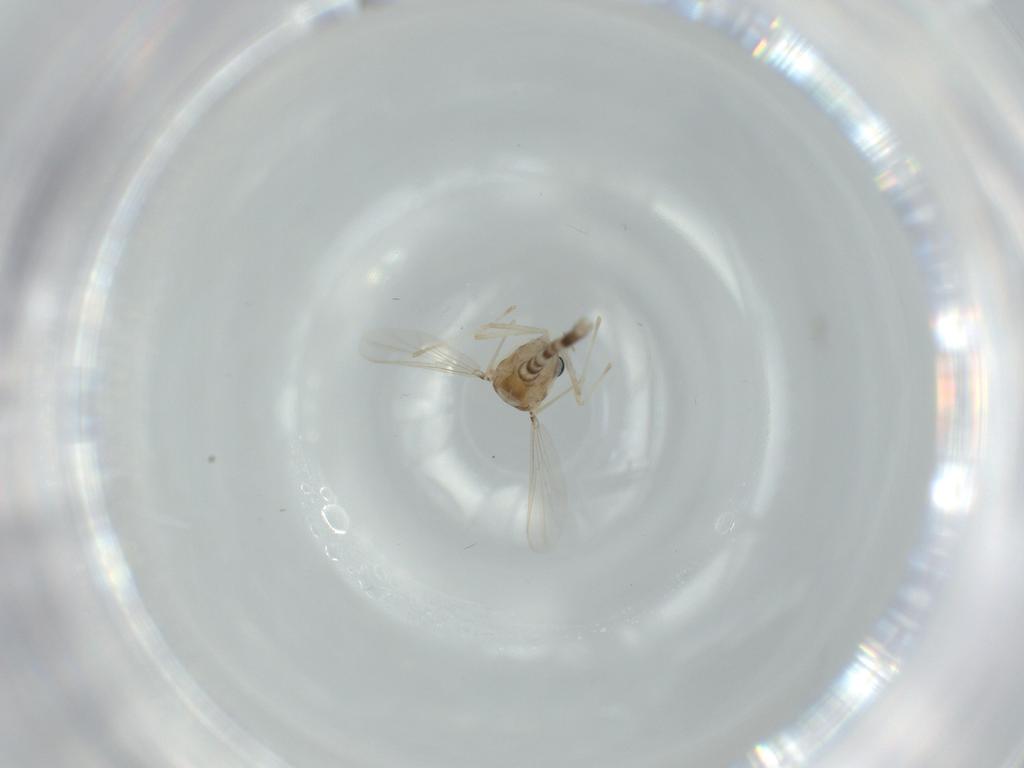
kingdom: Animalia
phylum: Arthropoda
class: Insecta
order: Diptera
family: Chironomidae
